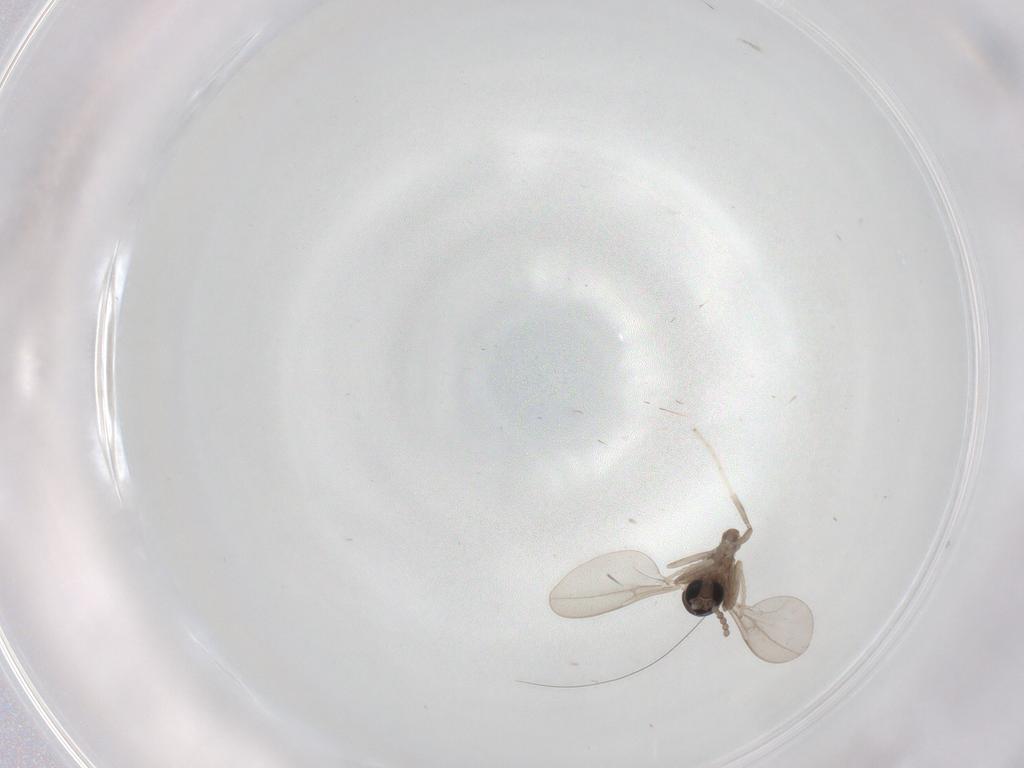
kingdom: Animalia
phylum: Arthropoda
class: Insecta
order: Diptera
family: Cecidomyiidae
